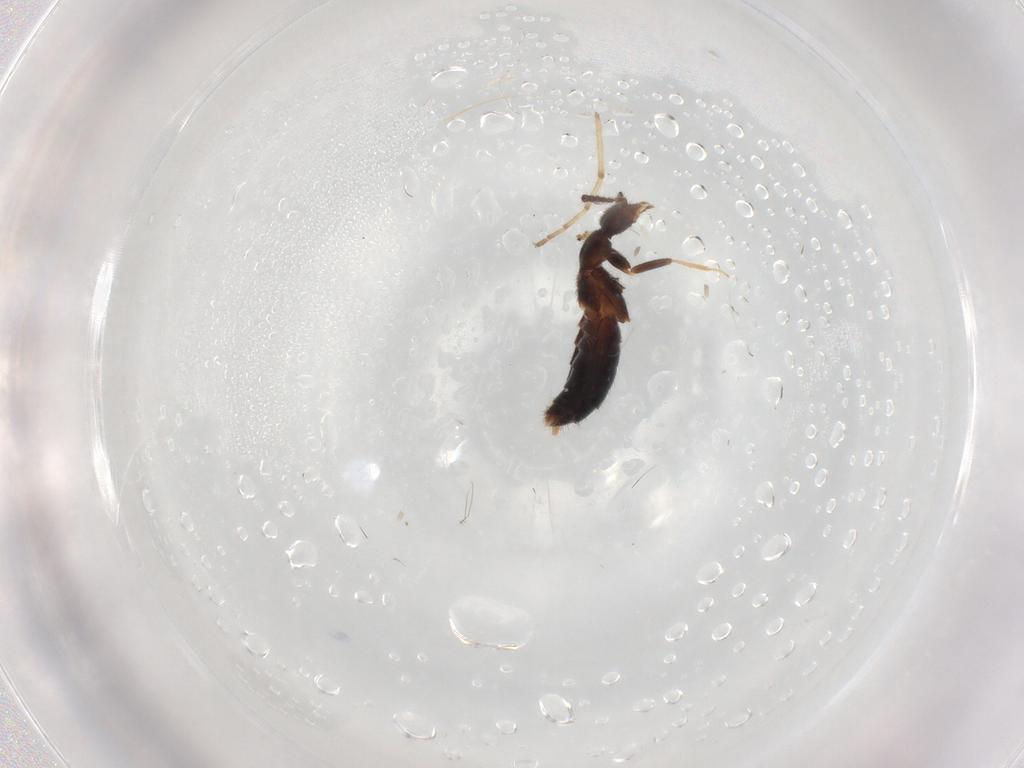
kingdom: Animalia
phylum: Arthropoda
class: Insecta
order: Coleoptera
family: Staphylinidae
